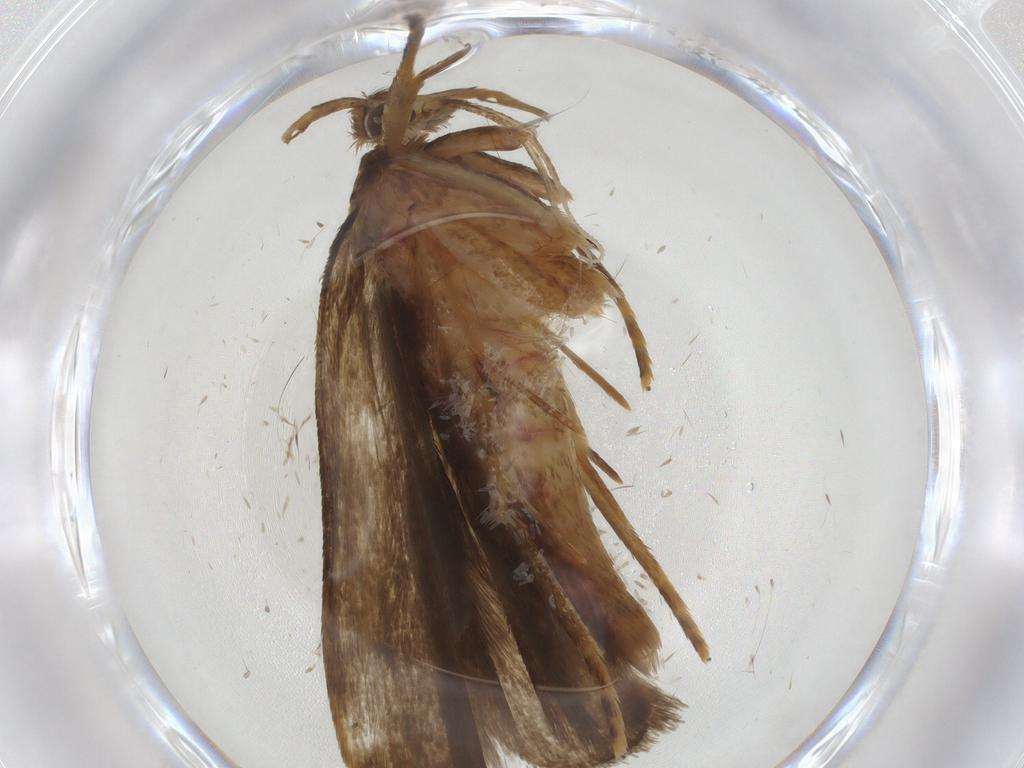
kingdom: Animalia
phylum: Arthropoda
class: Insecta
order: Lepidoptera
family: Autostichidae
